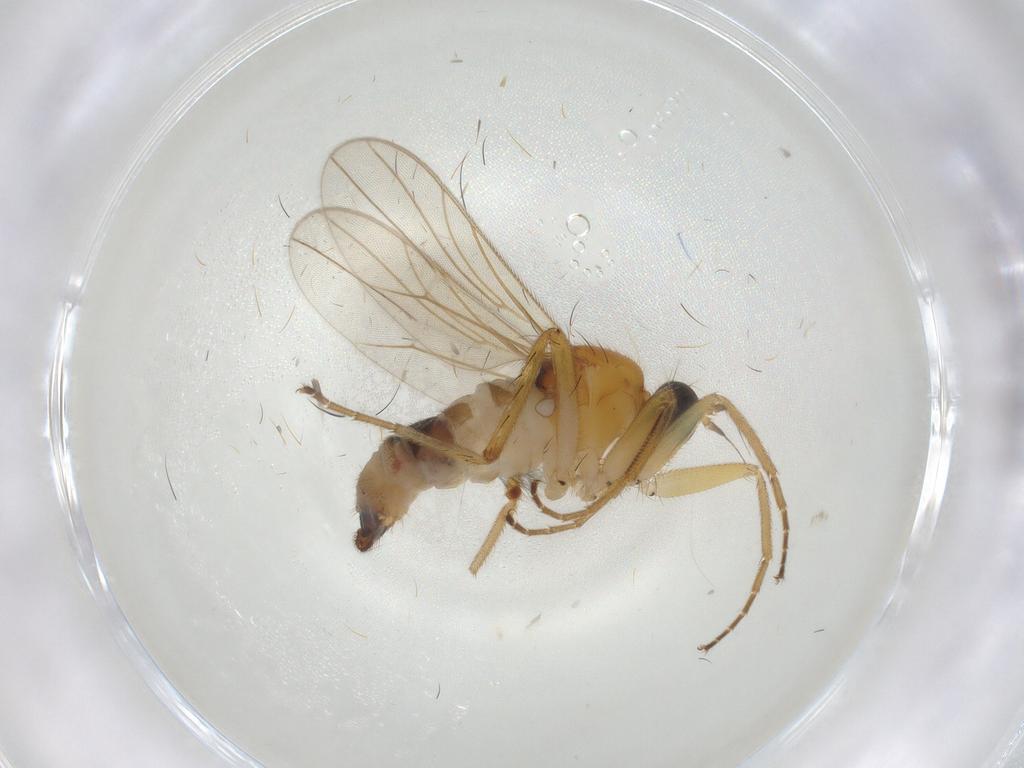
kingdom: Animalia
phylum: Arthropoda
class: Insecta
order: Diptera
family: Hybotidae
